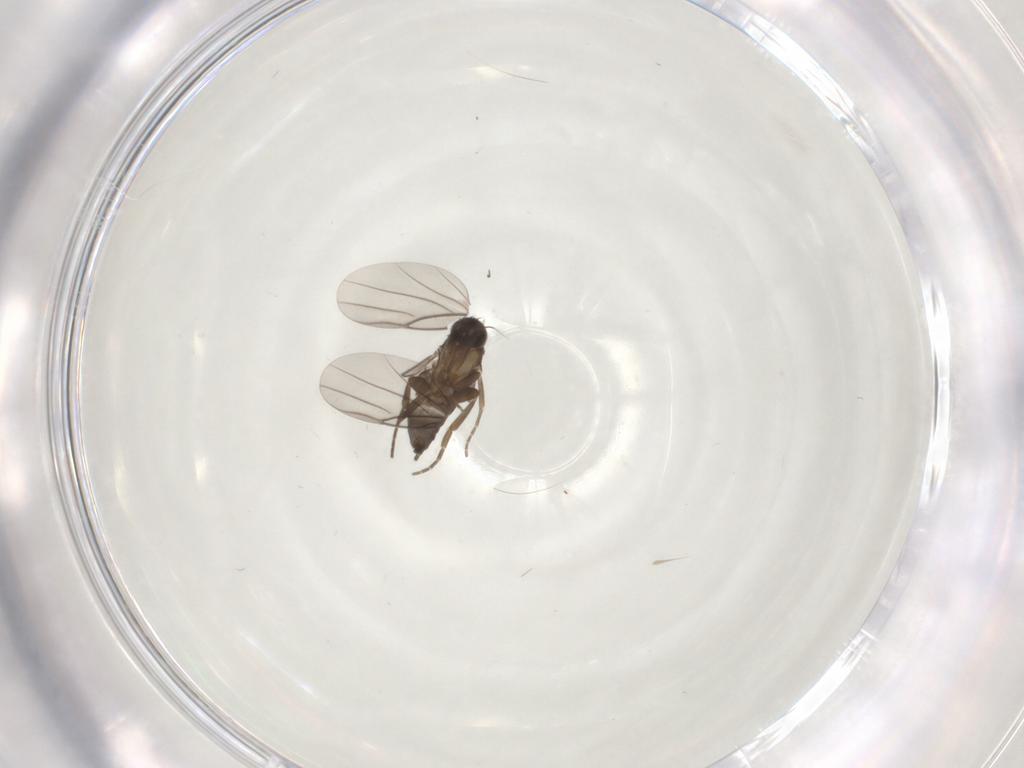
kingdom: Animalia
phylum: Arthropoda
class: Insecta
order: Diptera
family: Phoridae
